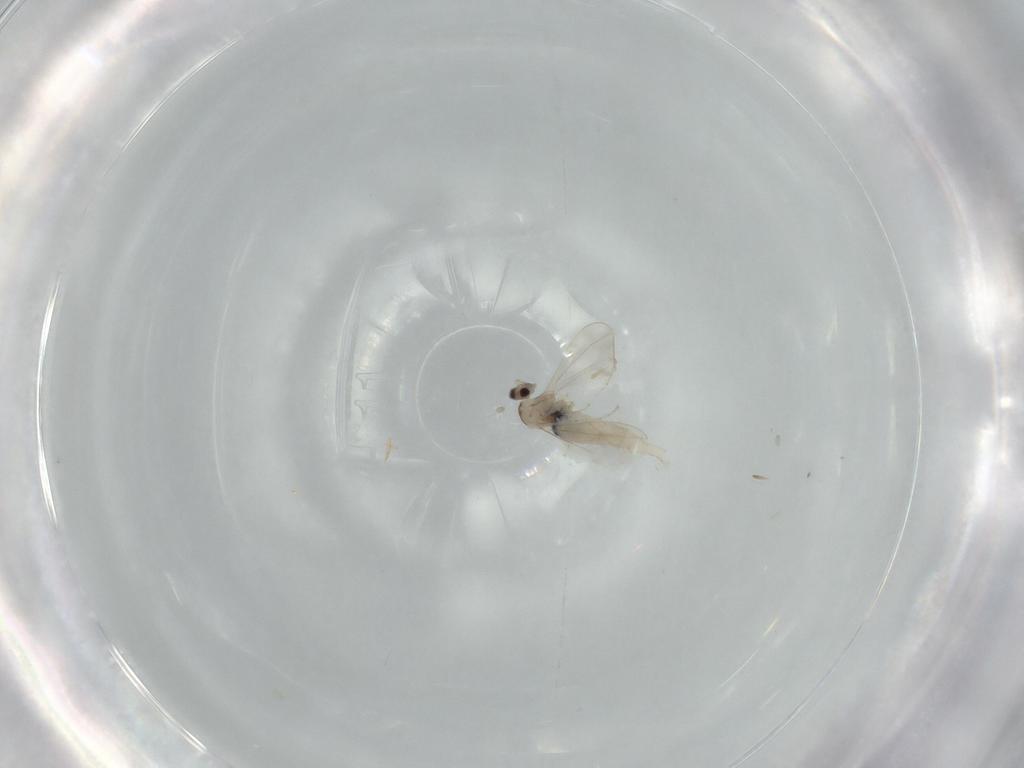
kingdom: Animalia
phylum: Arthropoda
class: Insecta
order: Diptera
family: Cecidomyiidae
